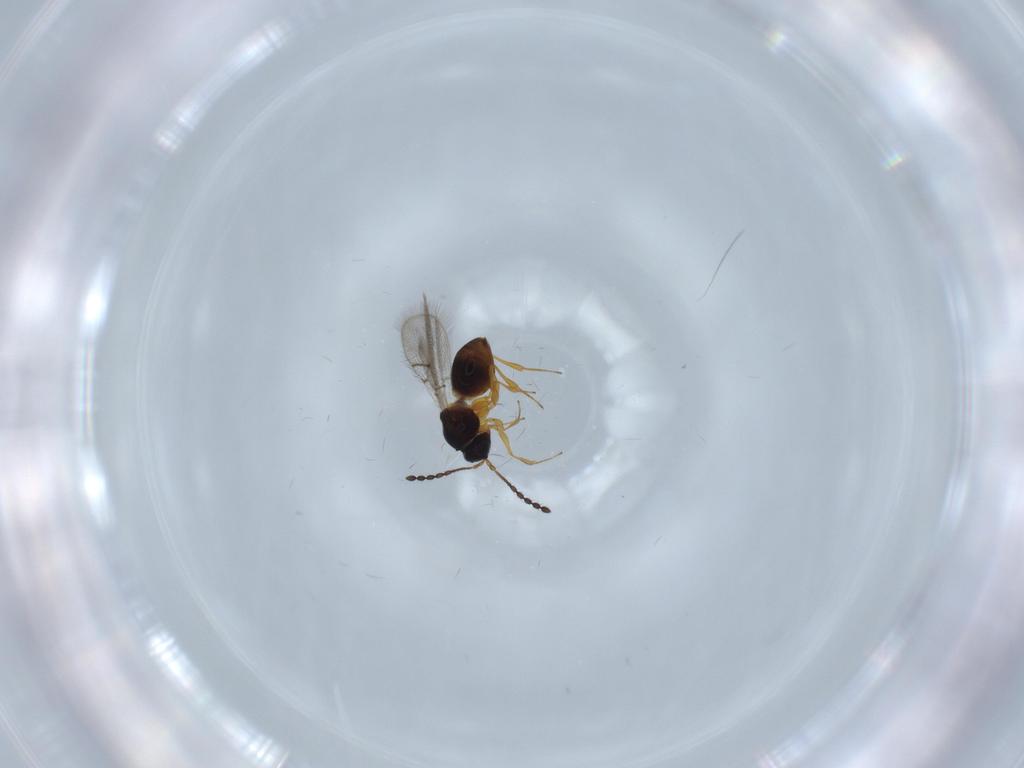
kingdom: Animalia
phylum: Arthropoda
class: Insecta
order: Hymenoptera
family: Figitidae
